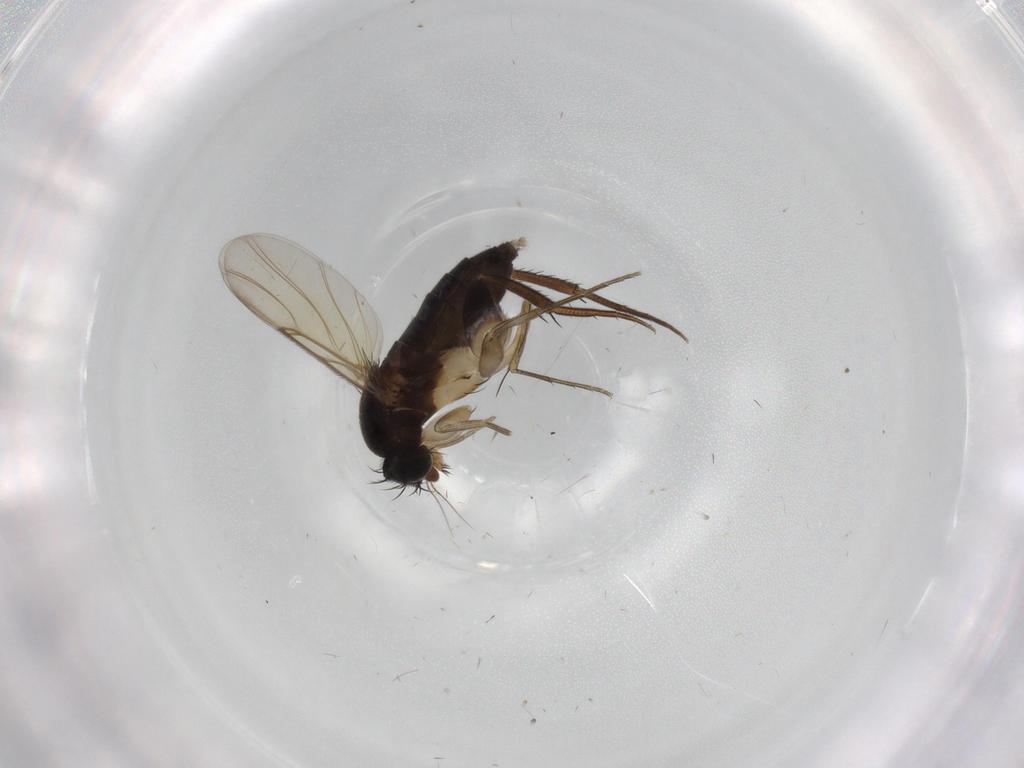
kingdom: Animalia
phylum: Arthropoda
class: Insecta
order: Diptera
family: Phoridae
